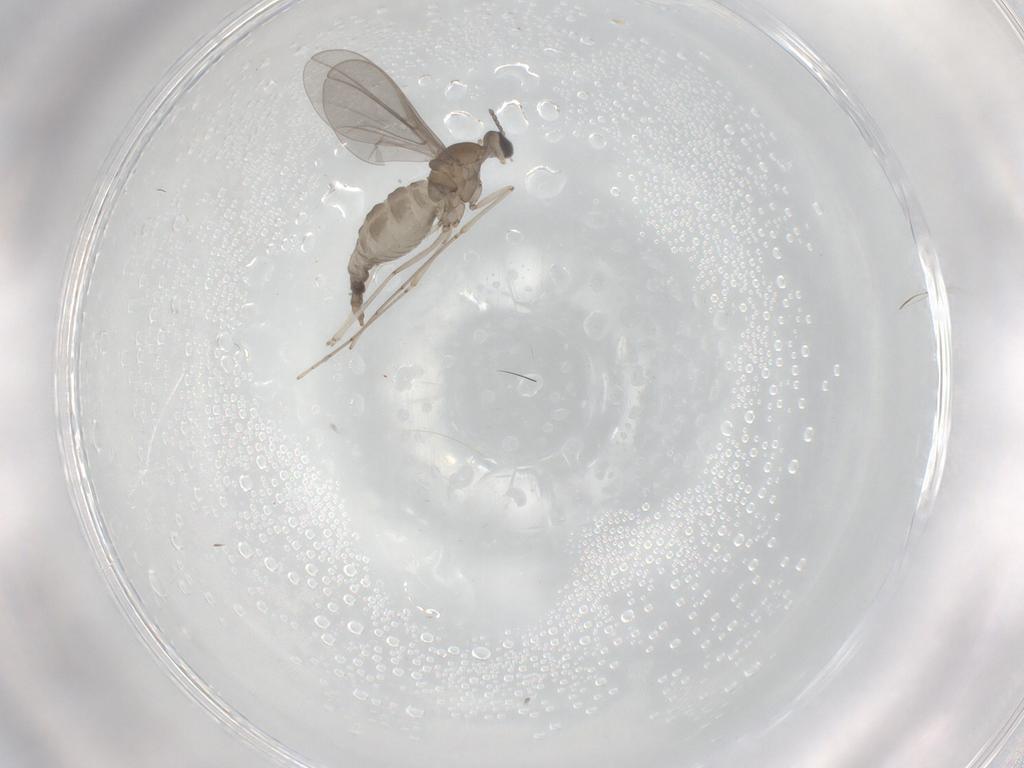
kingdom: Animalia
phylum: Arthropoda
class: Insecta
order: Diptera
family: Cecidomyiidae
